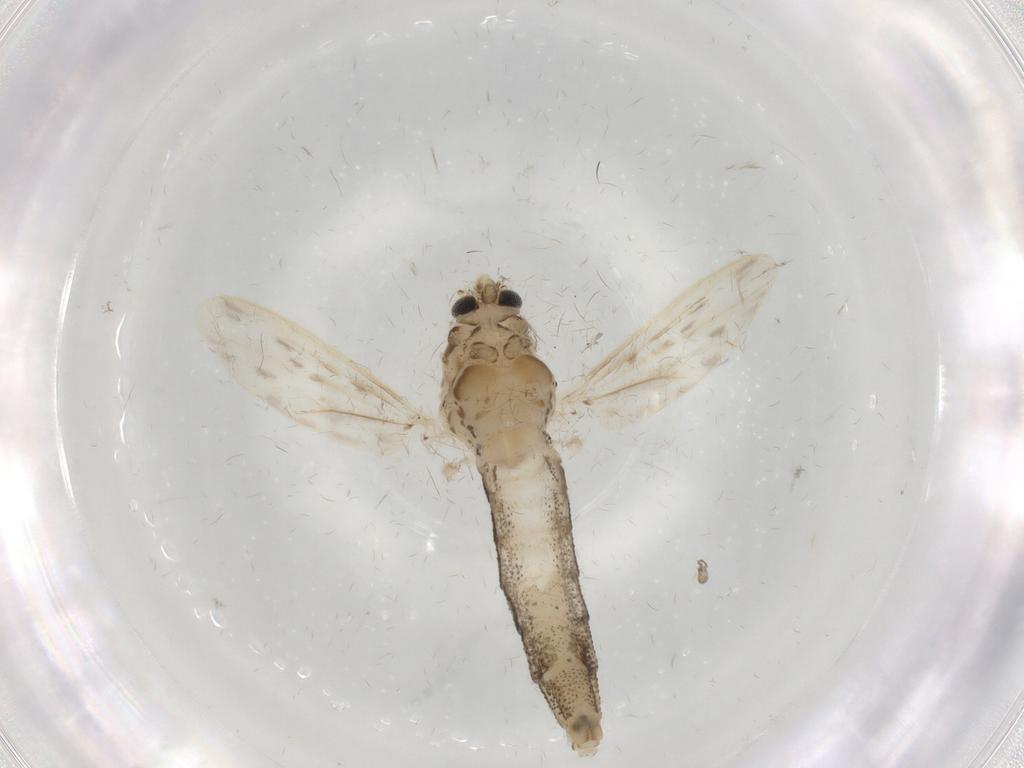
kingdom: Animalia
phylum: Arthropoda
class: Insecta
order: Diptera
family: Chaoboridae
